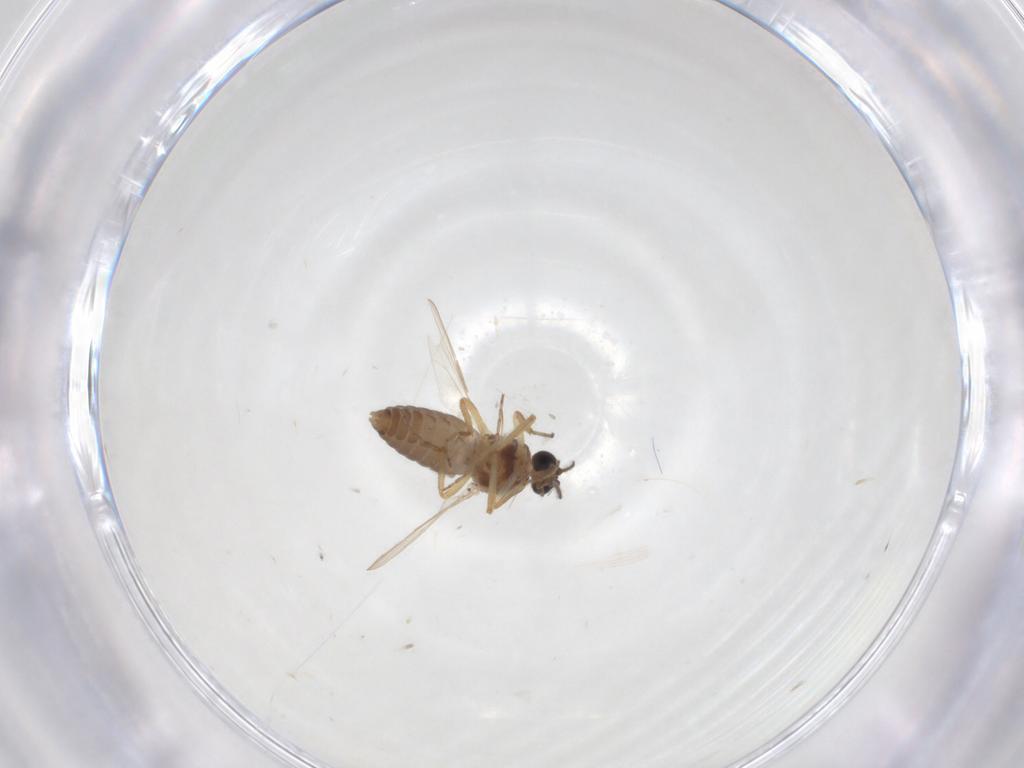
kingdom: Animalia
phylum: Arthropoda
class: Insecta
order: Diptera
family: Ceratopogonidae
